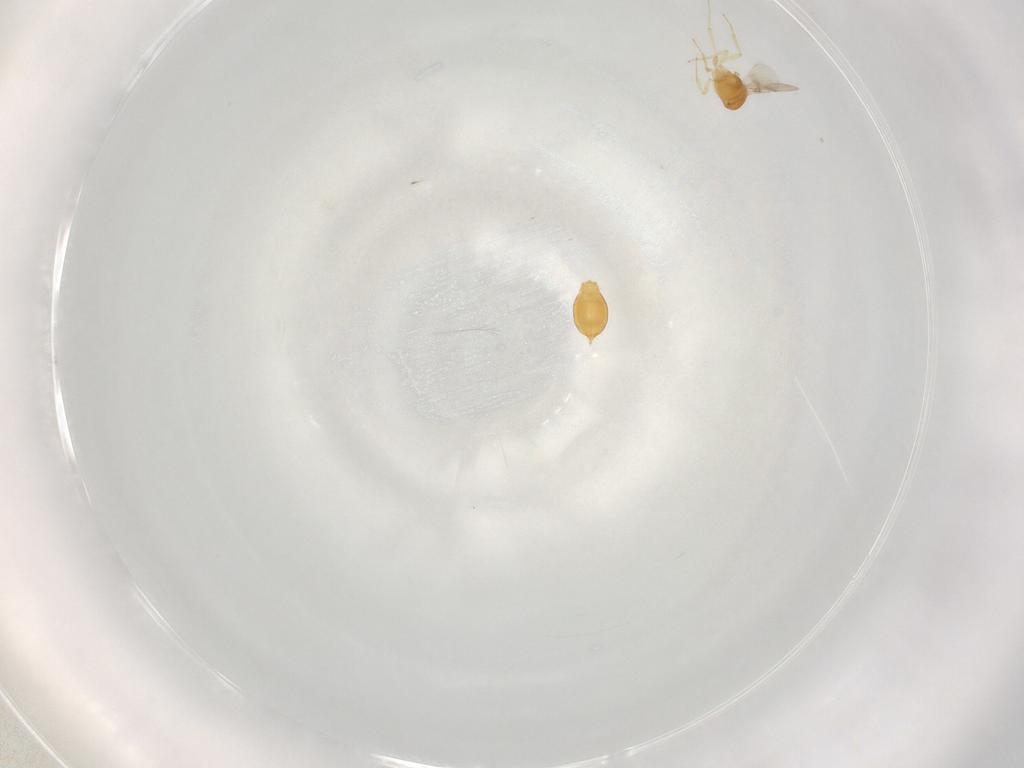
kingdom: Animalia
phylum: Arthropoda
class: Insecta
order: Hymenoptera
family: Scelionidae
